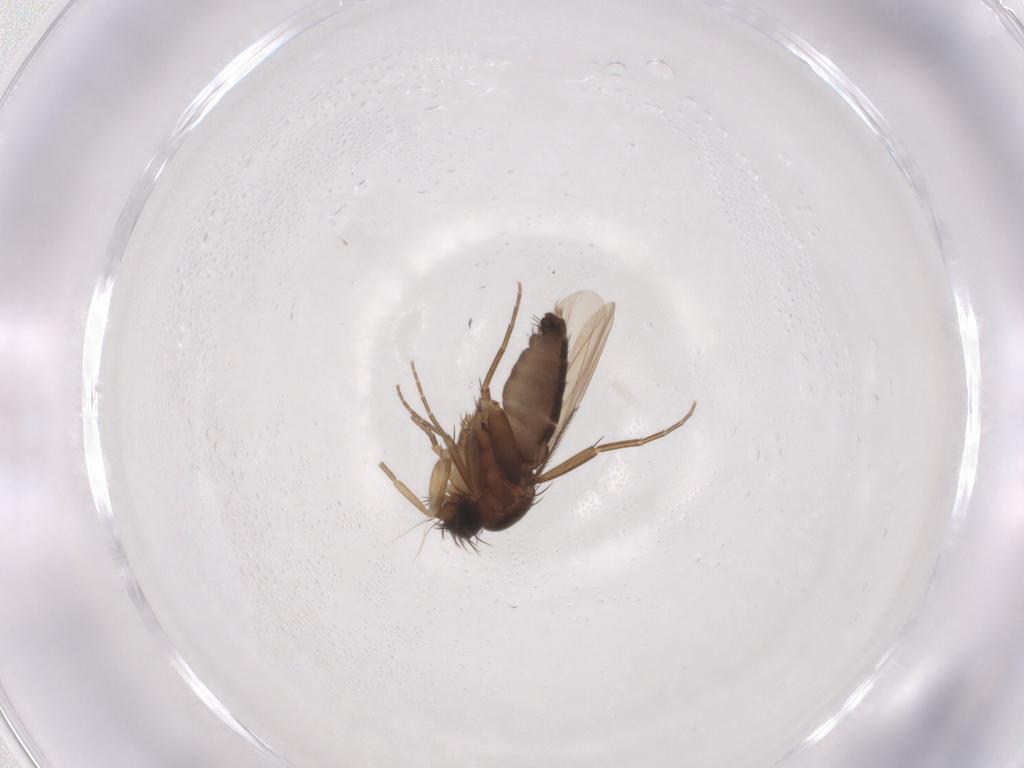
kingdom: Animalia
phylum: Arthropoda
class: Insecta
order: Diptera
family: Phoridae
